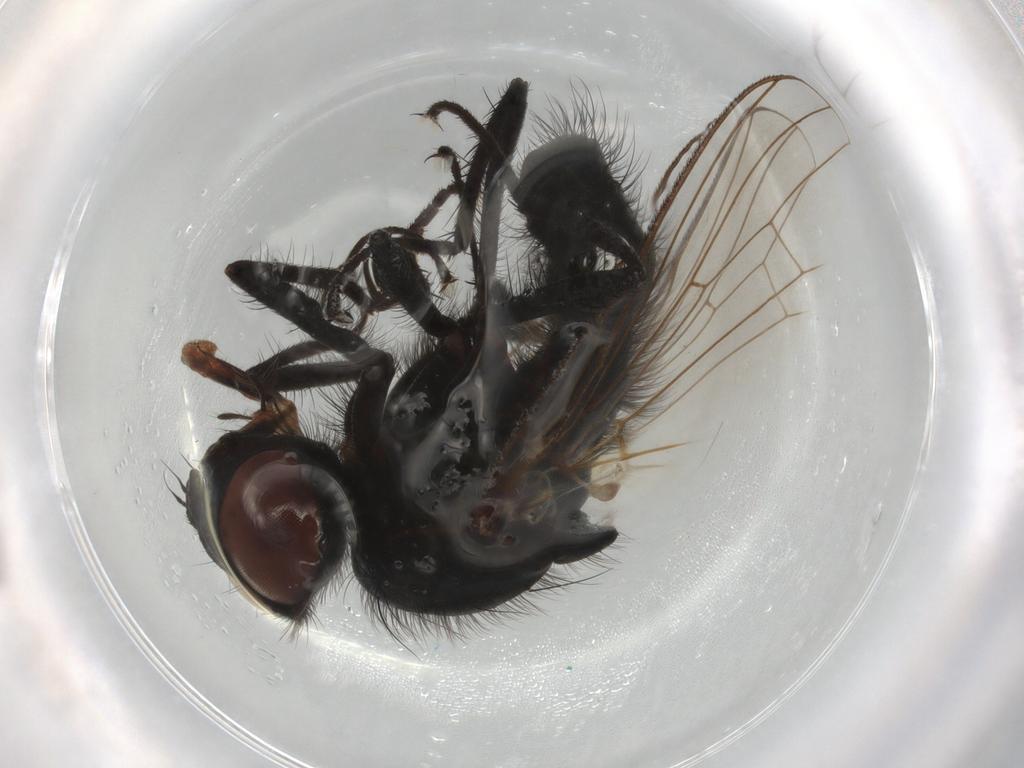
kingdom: Animalia
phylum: Arthropoda
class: Insecta
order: Diptera
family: Anthomyiidae
